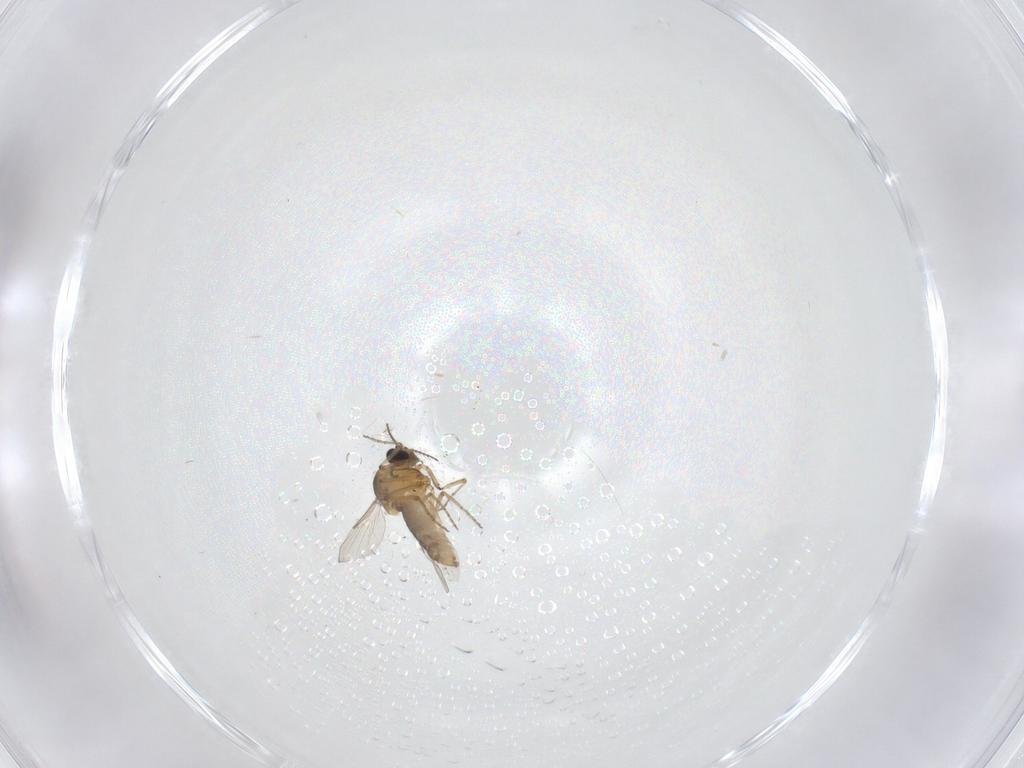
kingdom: Animalia
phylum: Arthropoda
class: Insecta
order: Diptera
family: Ceratopogonidae
